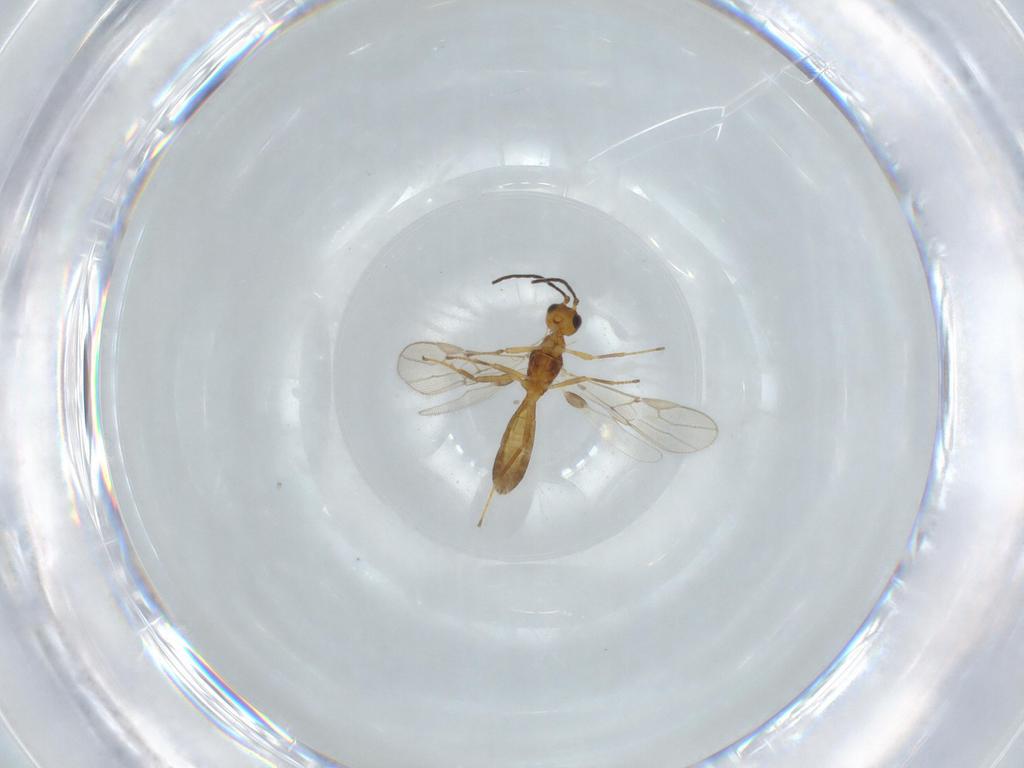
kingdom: Animalia
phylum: Arthropoda
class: Insecta
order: Hymenoptera
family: Braconidae
